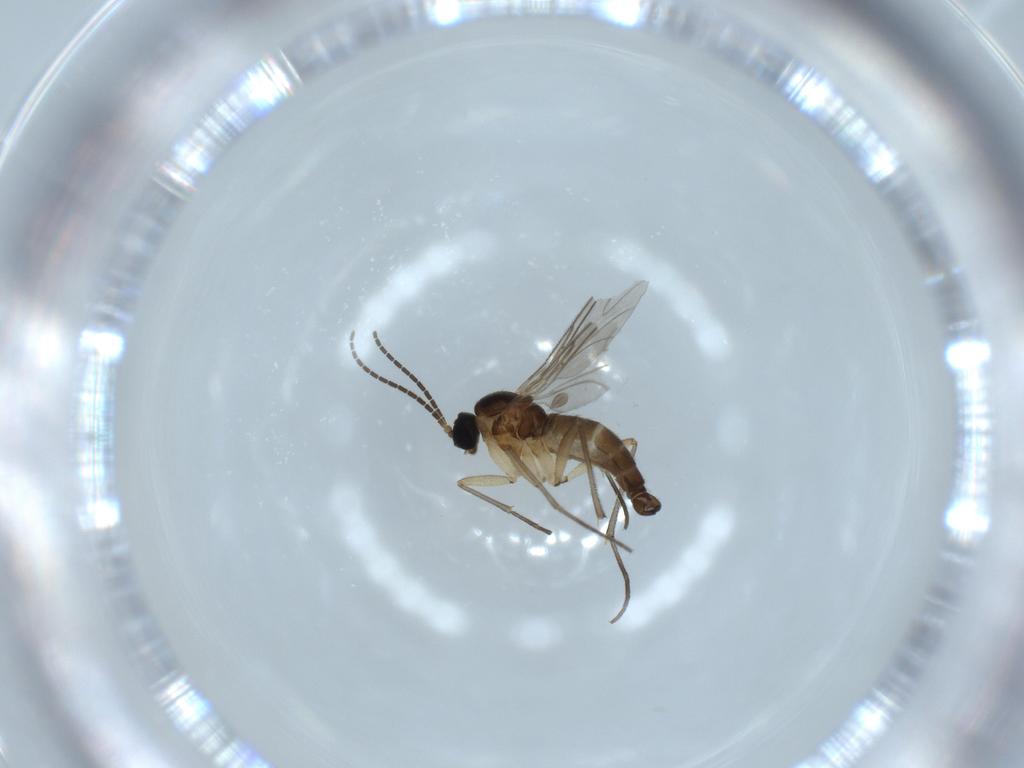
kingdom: Animalia
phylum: Arthropoda
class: Insecta
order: Diptera
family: Sciaridae
